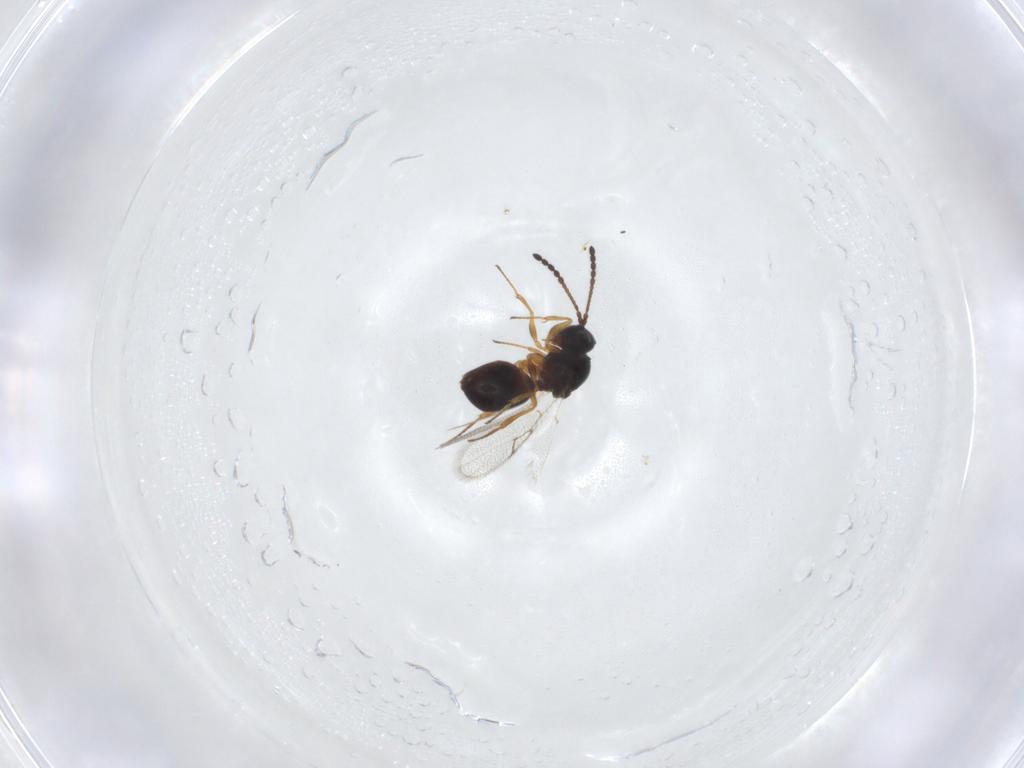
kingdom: Animalia
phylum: Arthropoda
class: Insecta
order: Hymenoptera
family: Figitidae
